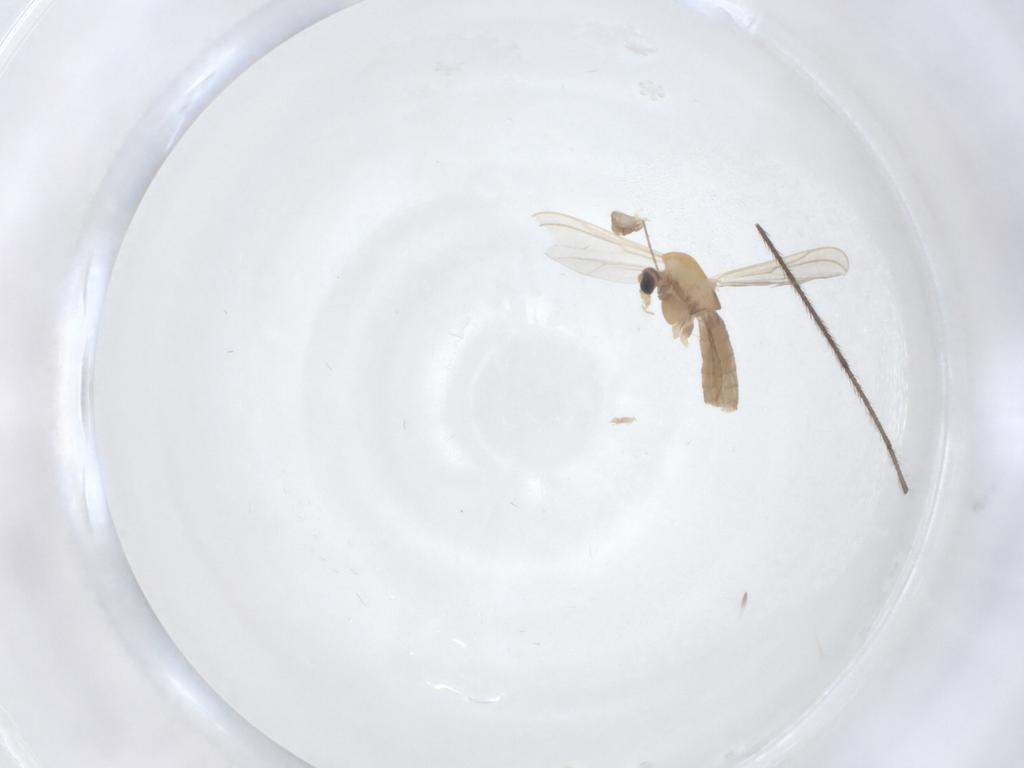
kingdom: Animalia
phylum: Arthropoda
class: Insecta
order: Diptera
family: Chironomidae
